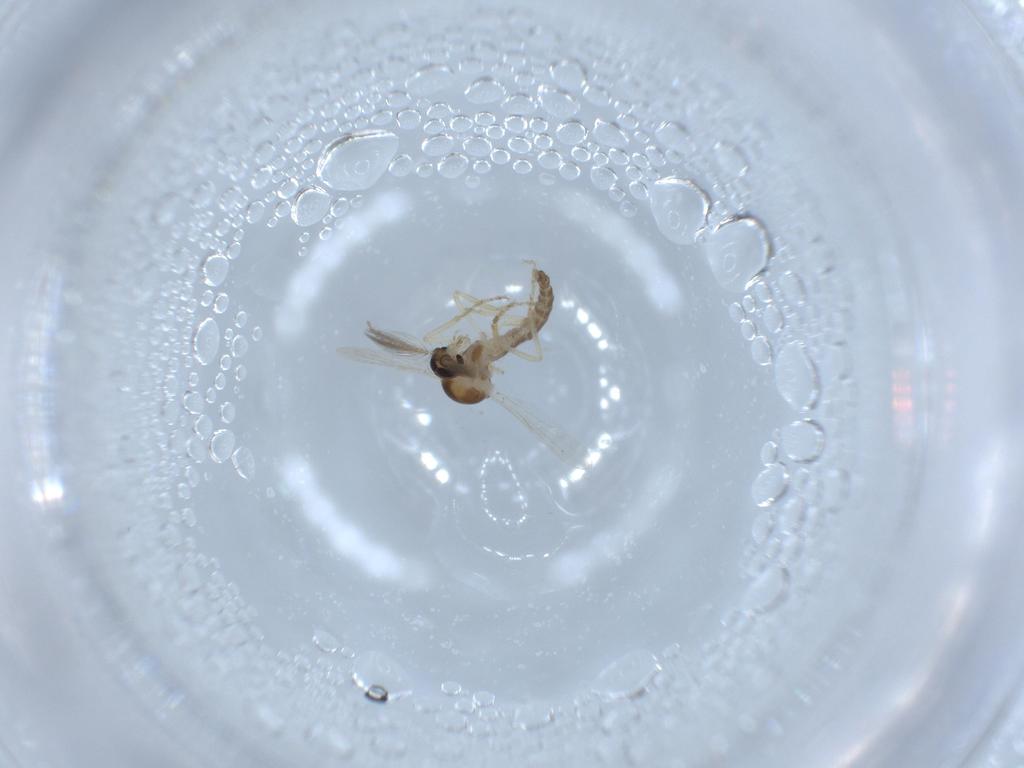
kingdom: Animalia
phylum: Arthropoda
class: Insecta
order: Diptera
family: Ceratopogonidae
